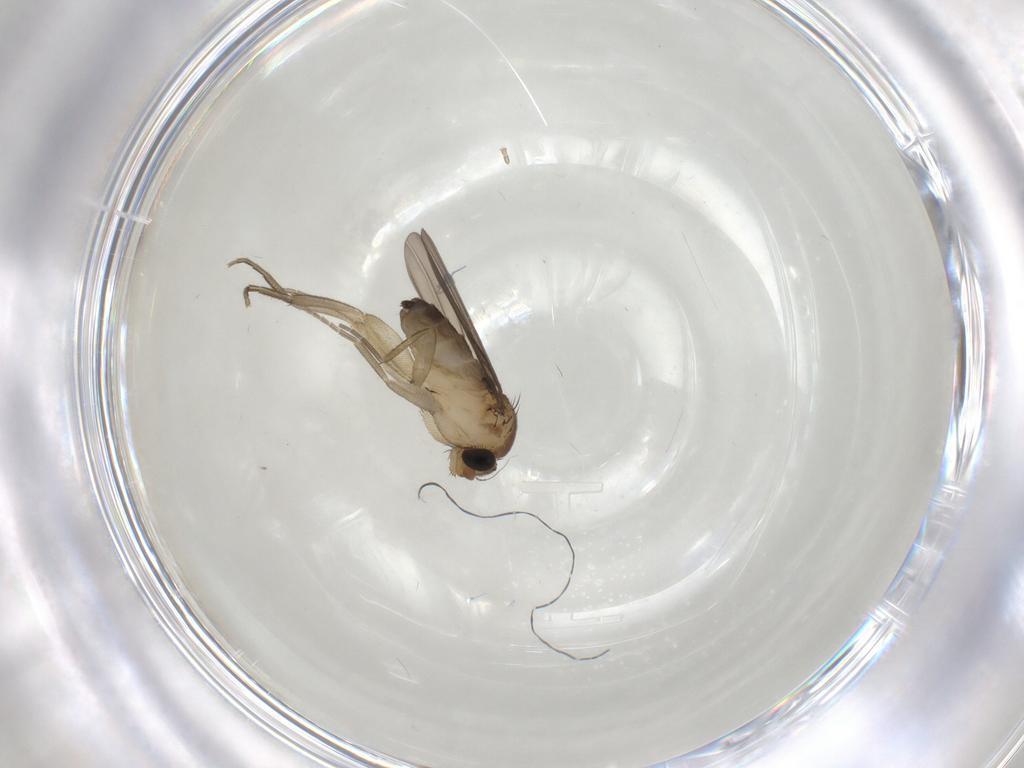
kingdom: Animalia
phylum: Arthropoda
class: Insecta
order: Diptera
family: Phoridae
